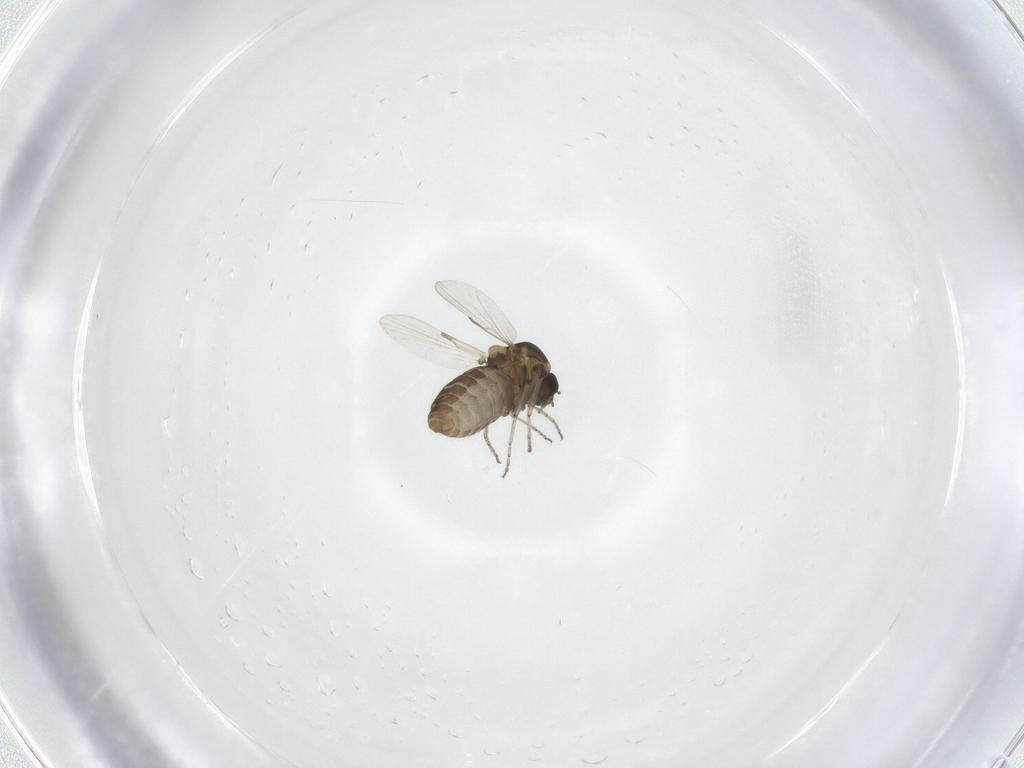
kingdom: Animalia
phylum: Arthropoda
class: Insecta
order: Diptera
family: Ceratopogonidae
